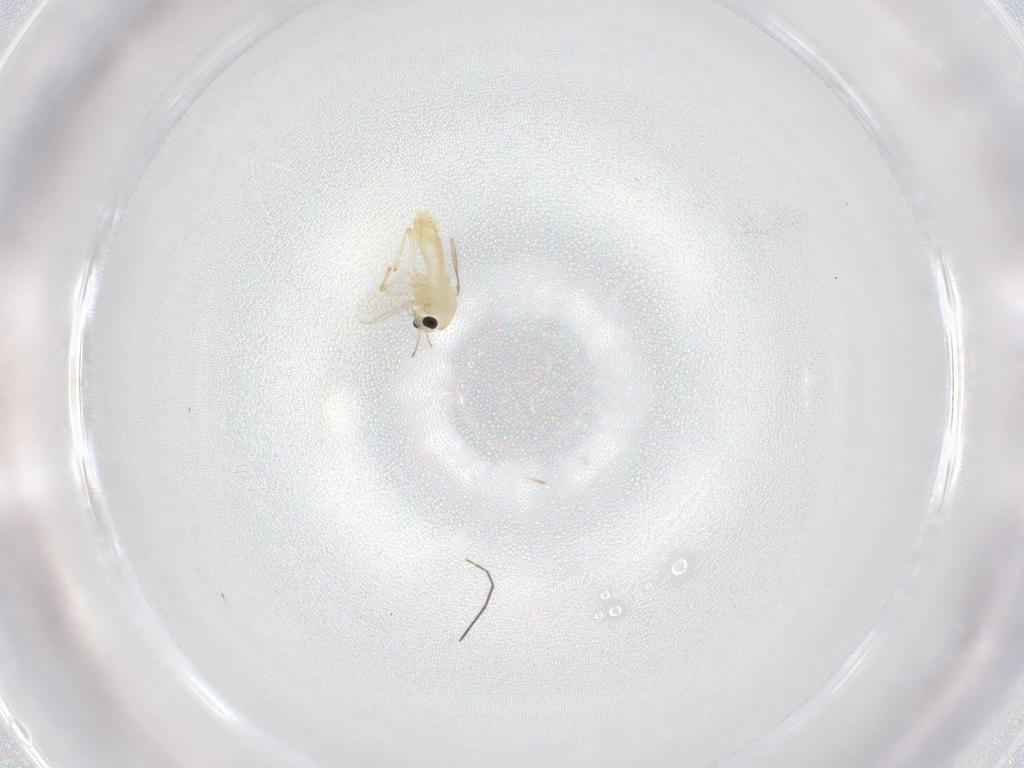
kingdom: Animalia
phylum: Arthropoda
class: Insecta
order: Diptera
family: Chironomidae
